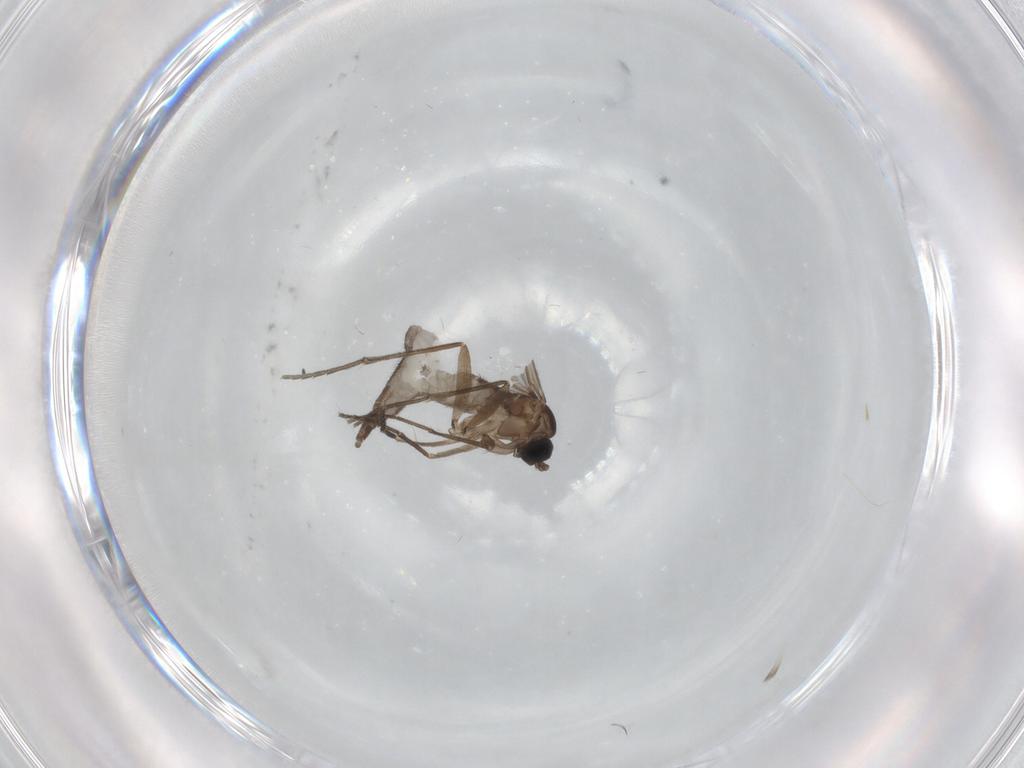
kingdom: Animalia
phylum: Arthropoda
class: Insecta
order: Diptera
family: Sciaridae
